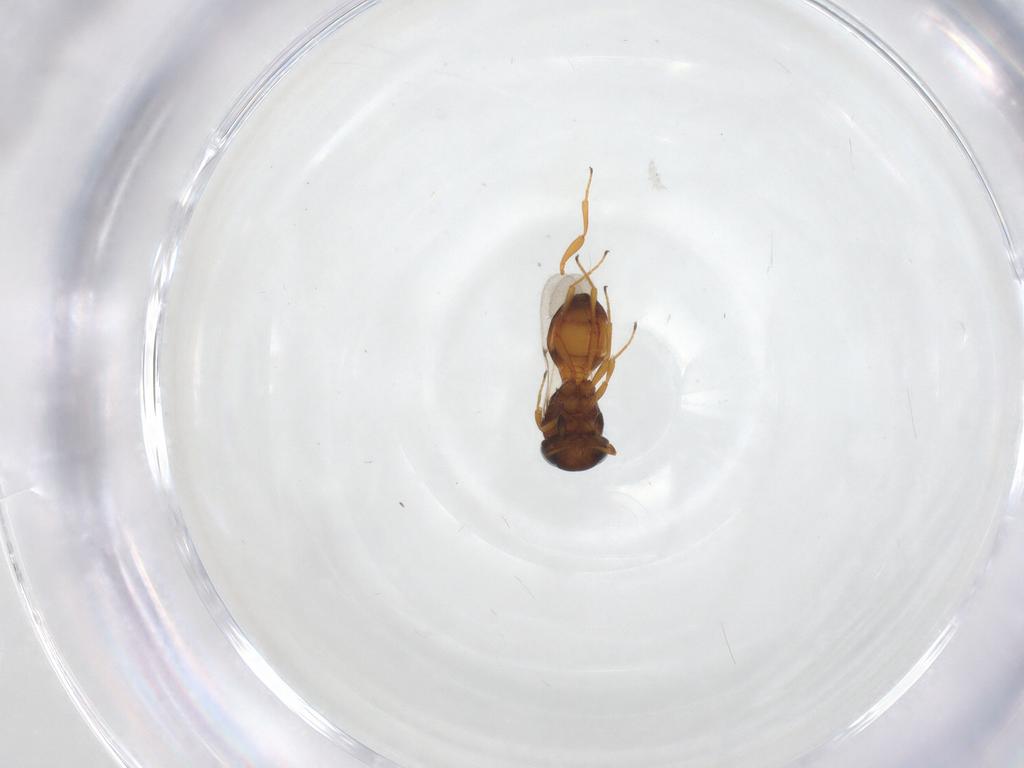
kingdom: Animalia
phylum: Arthropoda
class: Arachnida
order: Araneae
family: Pholcidae
